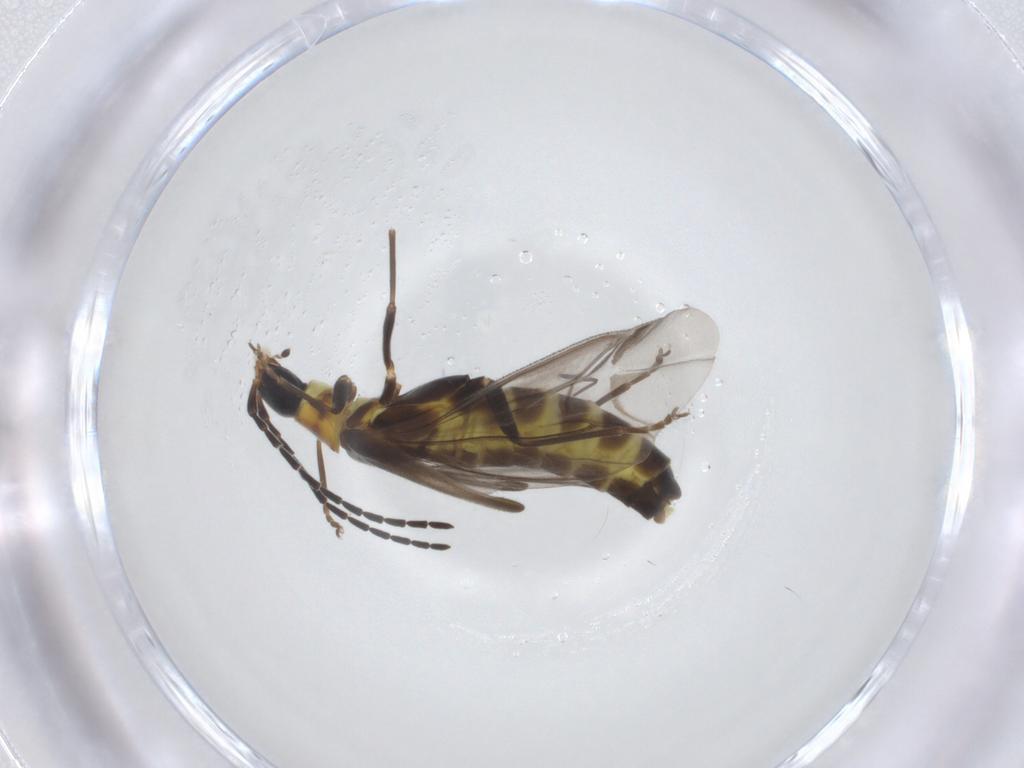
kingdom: Animalia
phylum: Arthropoda
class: Insecta
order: Coleoptera
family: Cantharidae
